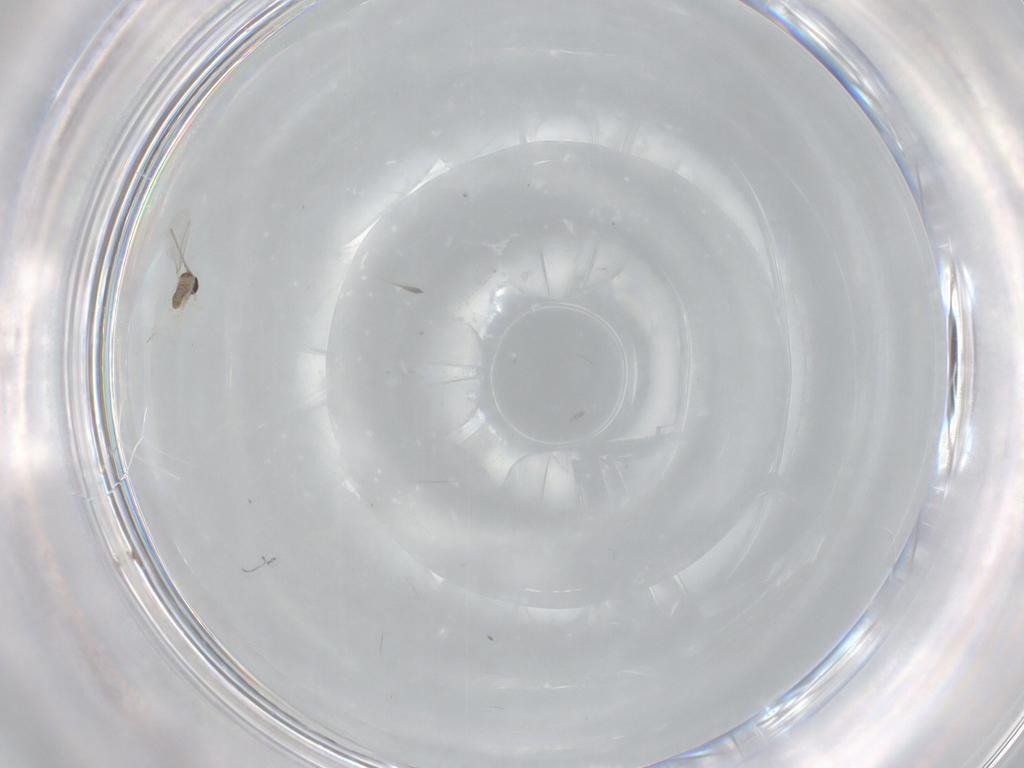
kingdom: Animalia
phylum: Arthropoda
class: Insecta
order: Diptera
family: Cecidomyiidae
